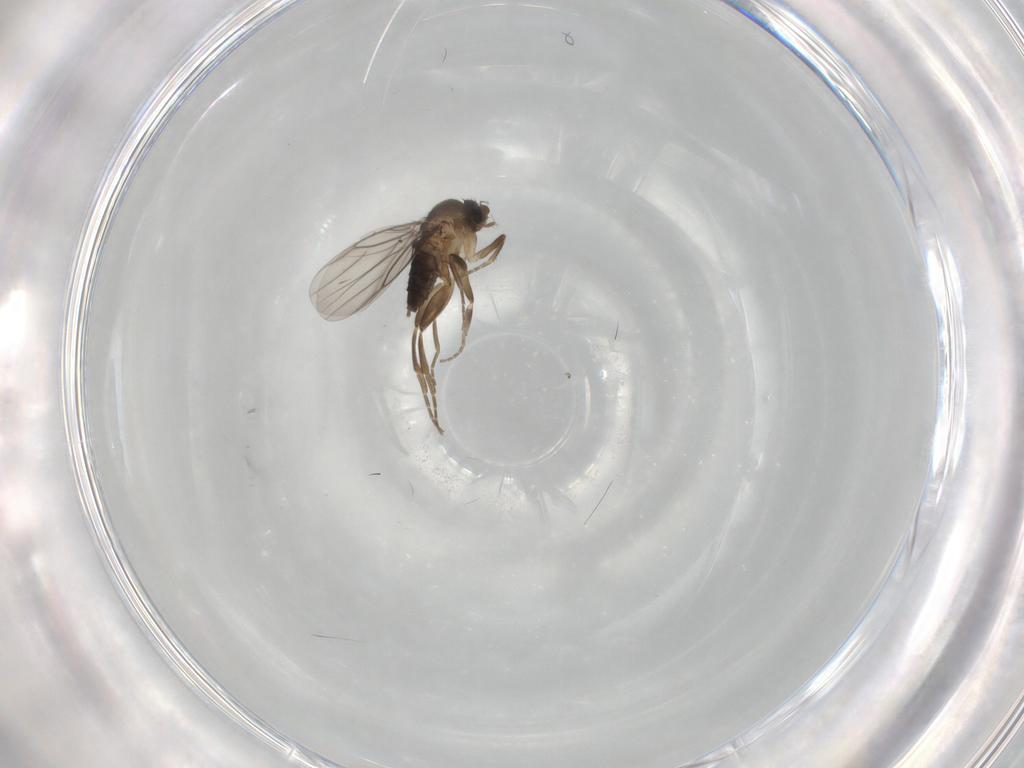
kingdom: Animalia
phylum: Arthropoda
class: Insecta
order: Diptera
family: Phoridae
